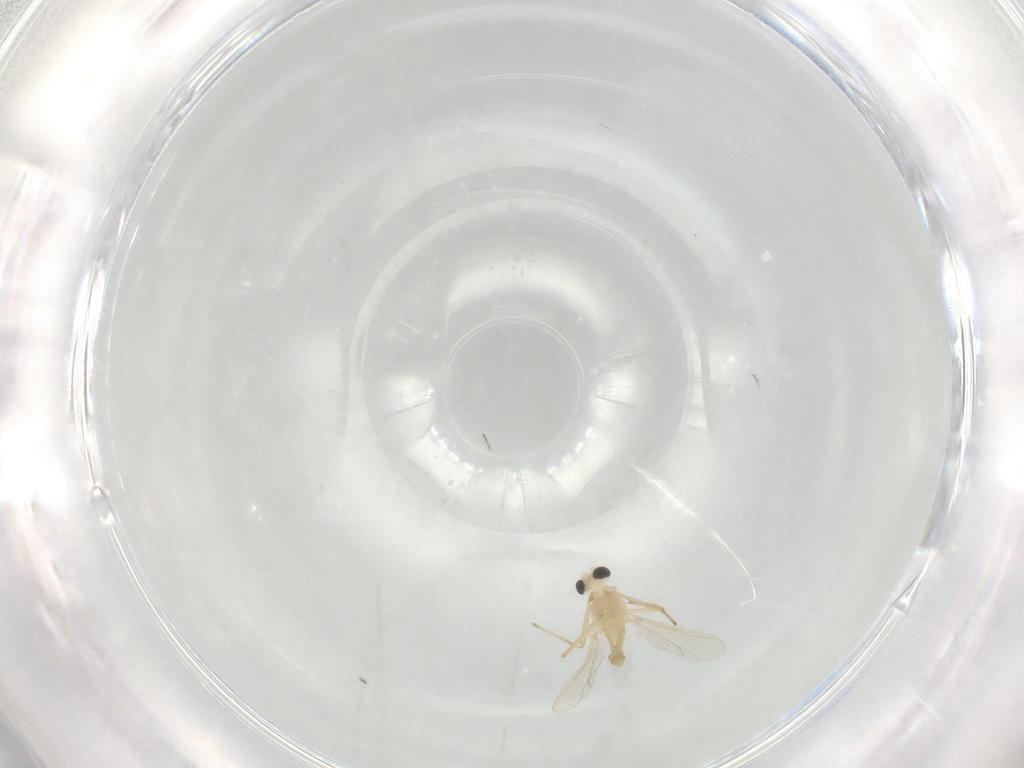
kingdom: Animalia
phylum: Arthropoda
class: Insecta
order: Diptera
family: Chironomidae
